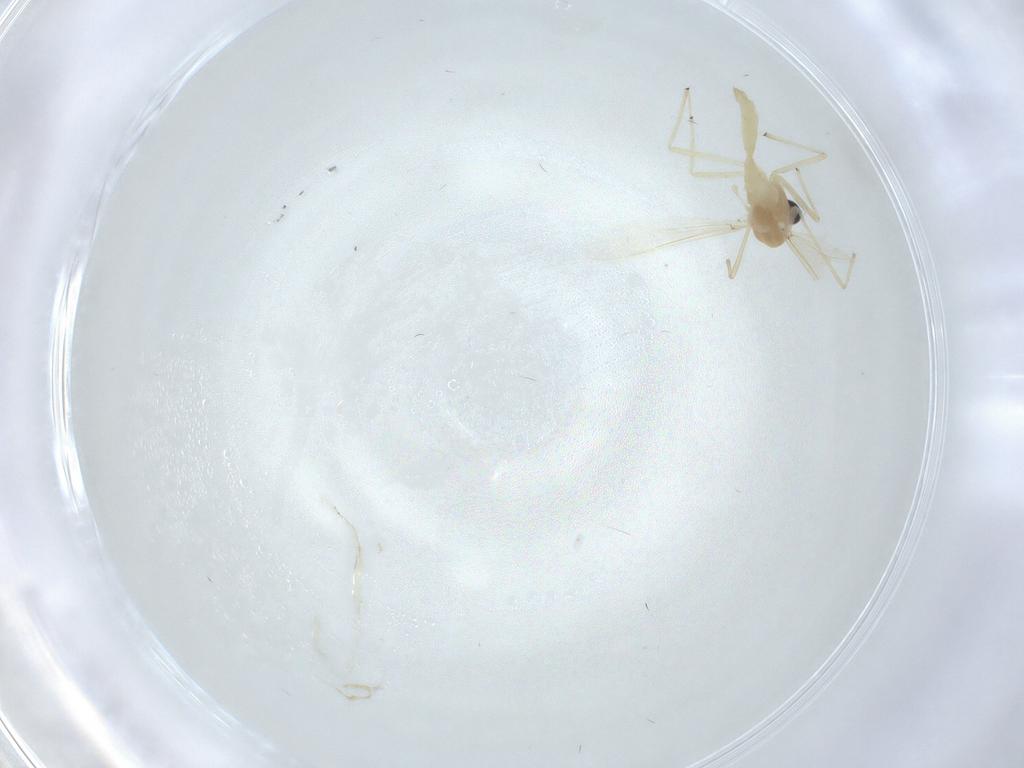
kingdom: Animalia
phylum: Arthropoda
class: Insecta
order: Diptera
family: Chironomidae
